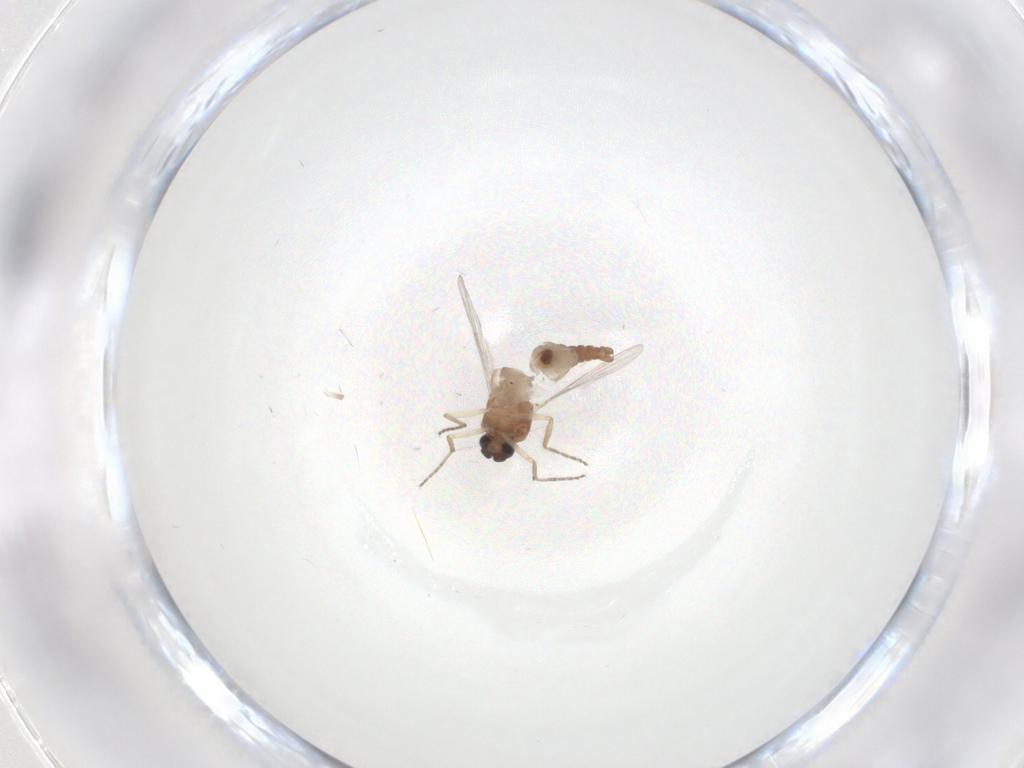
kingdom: Animalia
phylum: Arthropoda
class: Insecta
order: Diptera
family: Ceratopogonidae
